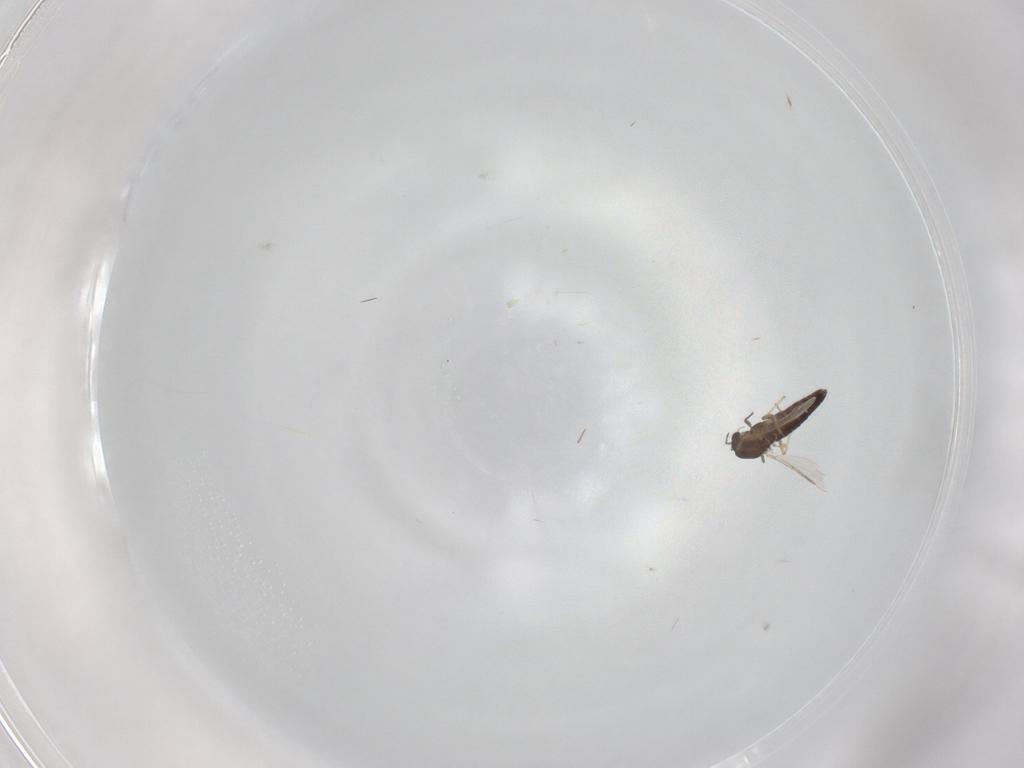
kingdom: Animalia
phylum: Arthropoda
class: Insecta
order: Diptera
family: Chironomidae
